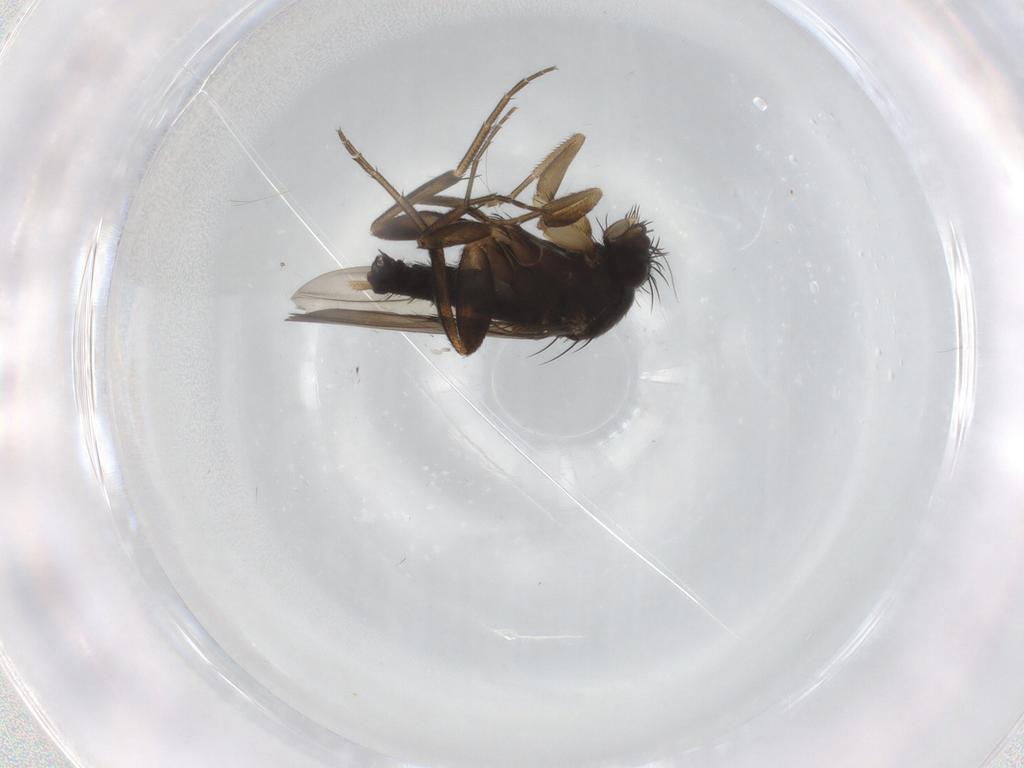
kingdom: Animalia
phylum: Arthropoda
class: Insecta
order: Diptera
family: Phoridae
